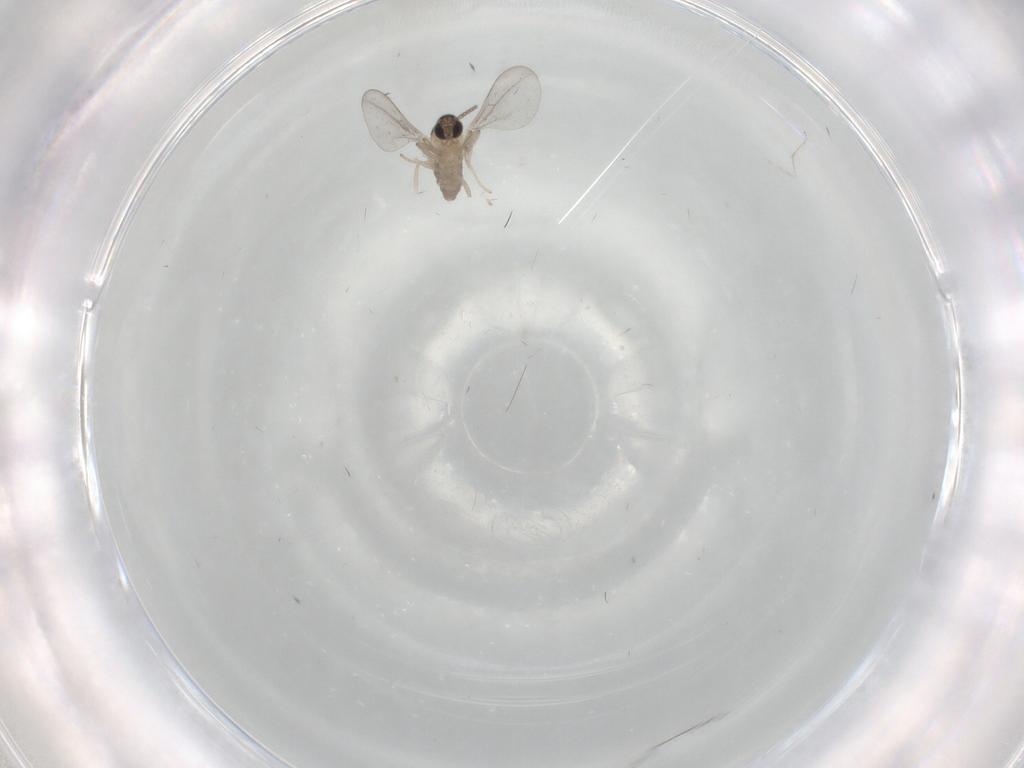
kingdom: Animalia
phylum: Arthropoda
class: Insecta
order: Diptera
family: Cecidomyiidae
